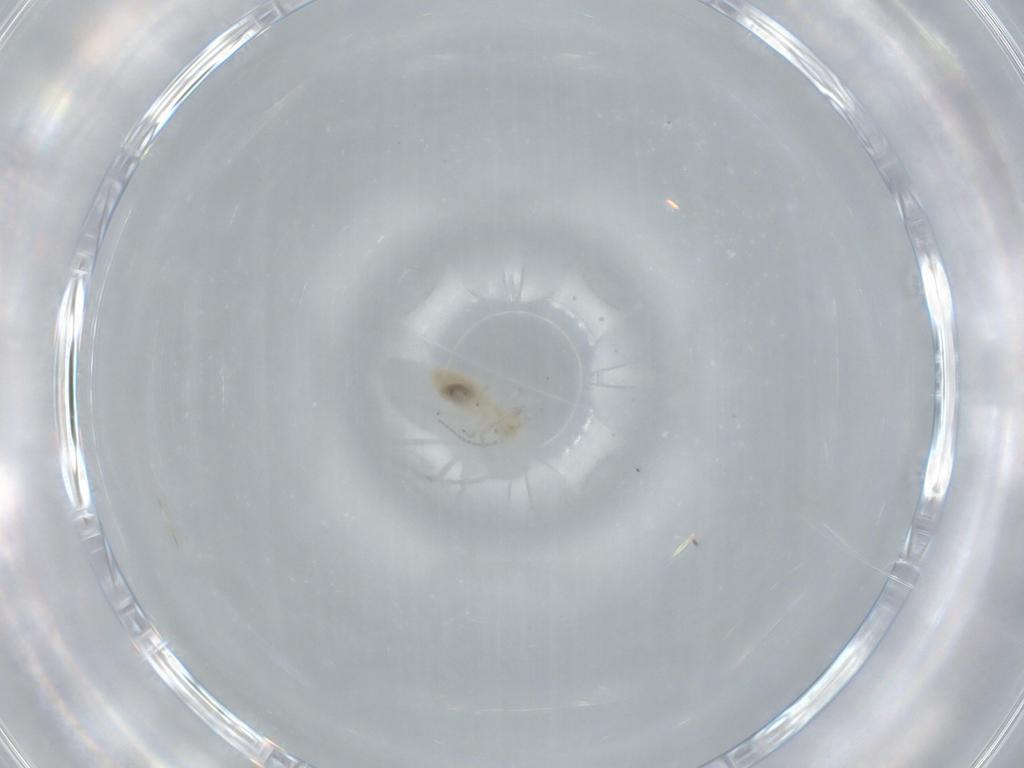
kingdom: Animalia
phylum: Arthropoda
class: Insecta
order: Psocodea
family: Caeciliusidae
